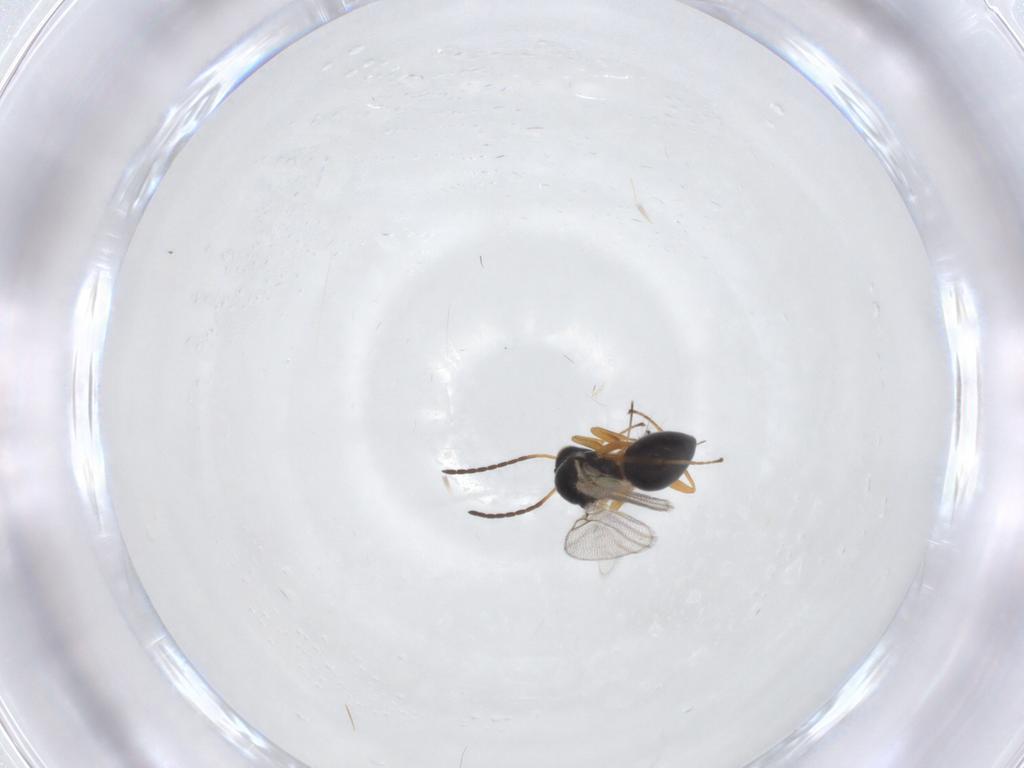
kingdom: Animalia
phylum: Arthropoda
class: Insecta
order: Hymenoptera
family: Figitidae
